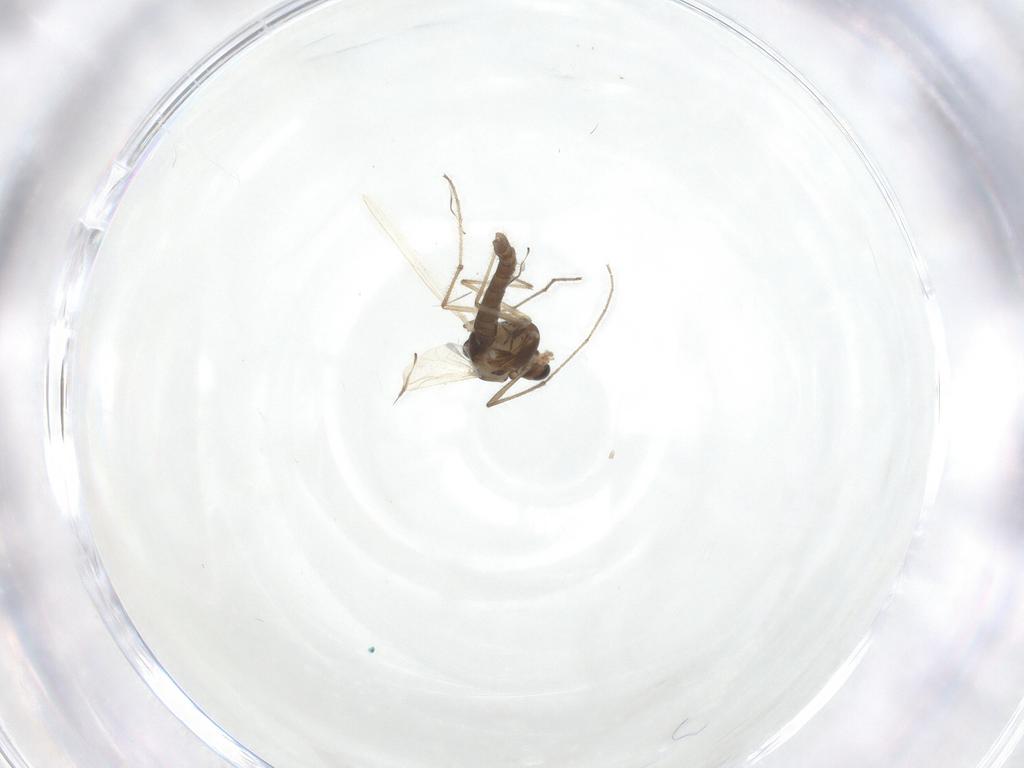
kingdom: Animalia
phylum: Arthropoda
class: Insecta
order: Diptera
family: Chironomidae
